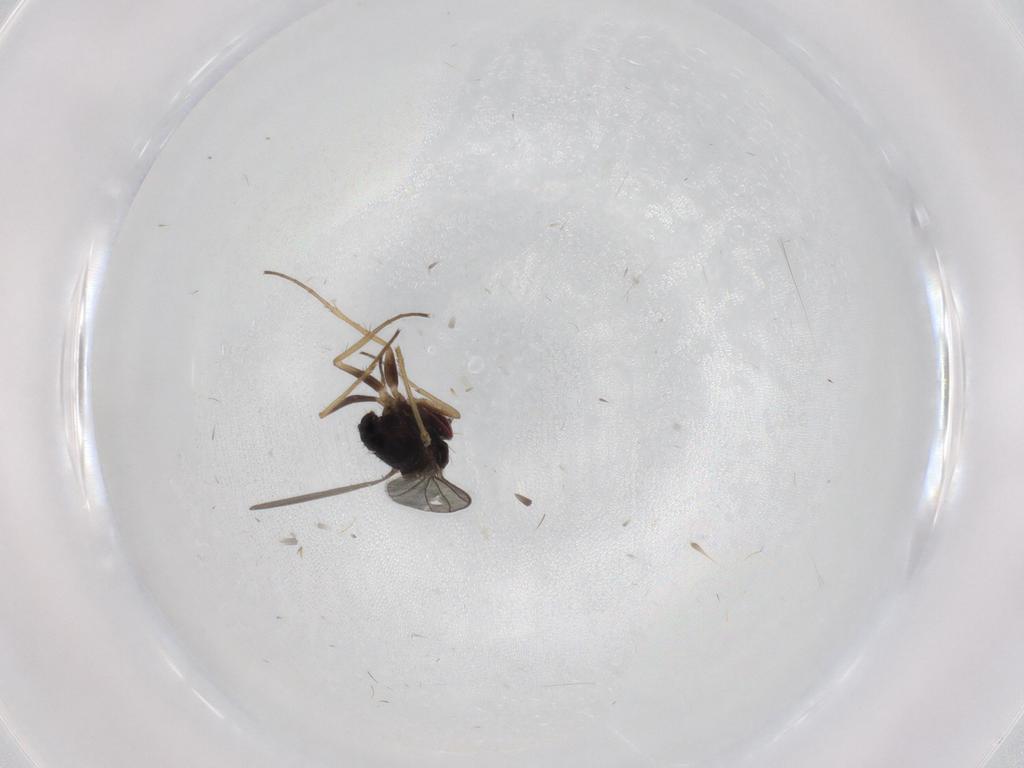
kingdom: Animalia
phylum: Arthropoda
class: Insecta
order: Diptera
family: Dolichopodidae
